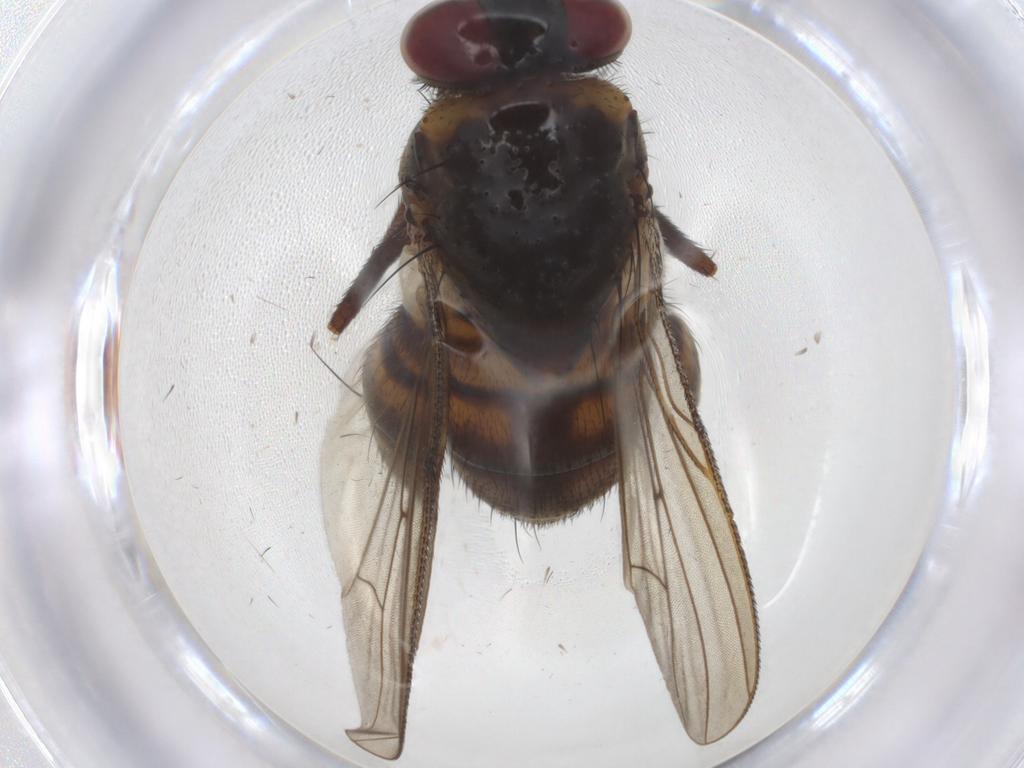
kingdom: Animalia
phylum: Arthropoda
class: Insecta
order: Diptera
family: Muscidae
